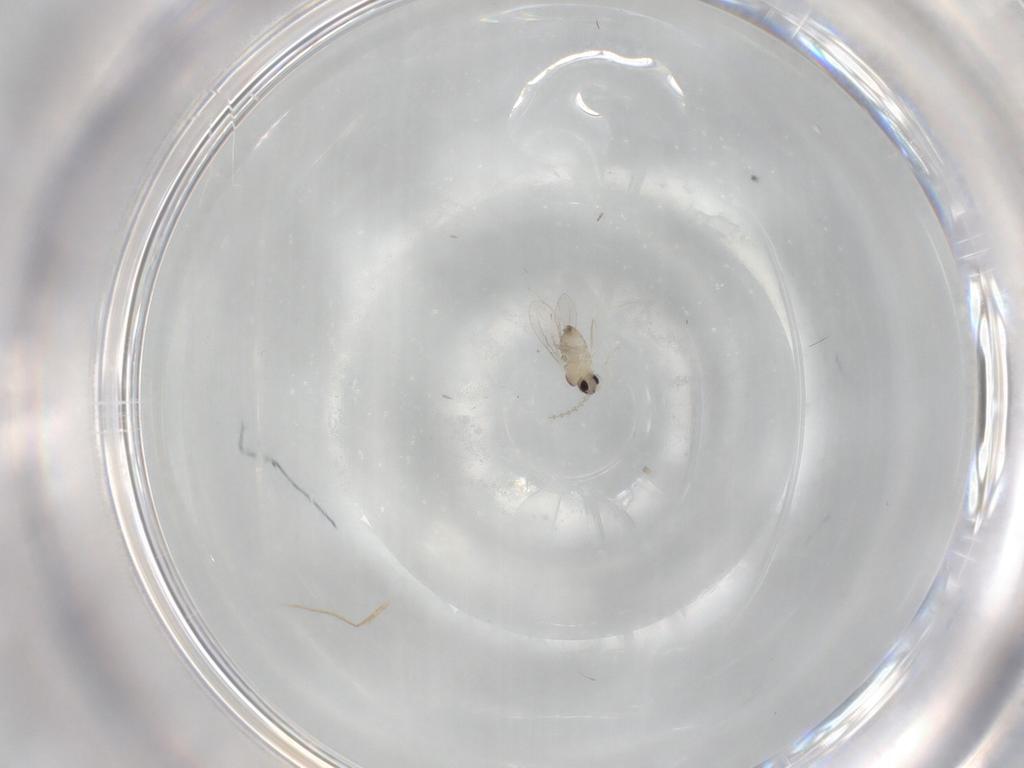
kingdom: Animalia
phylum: Arthropoda
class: Insecta
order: Diptera
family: Cecidomyiidae
